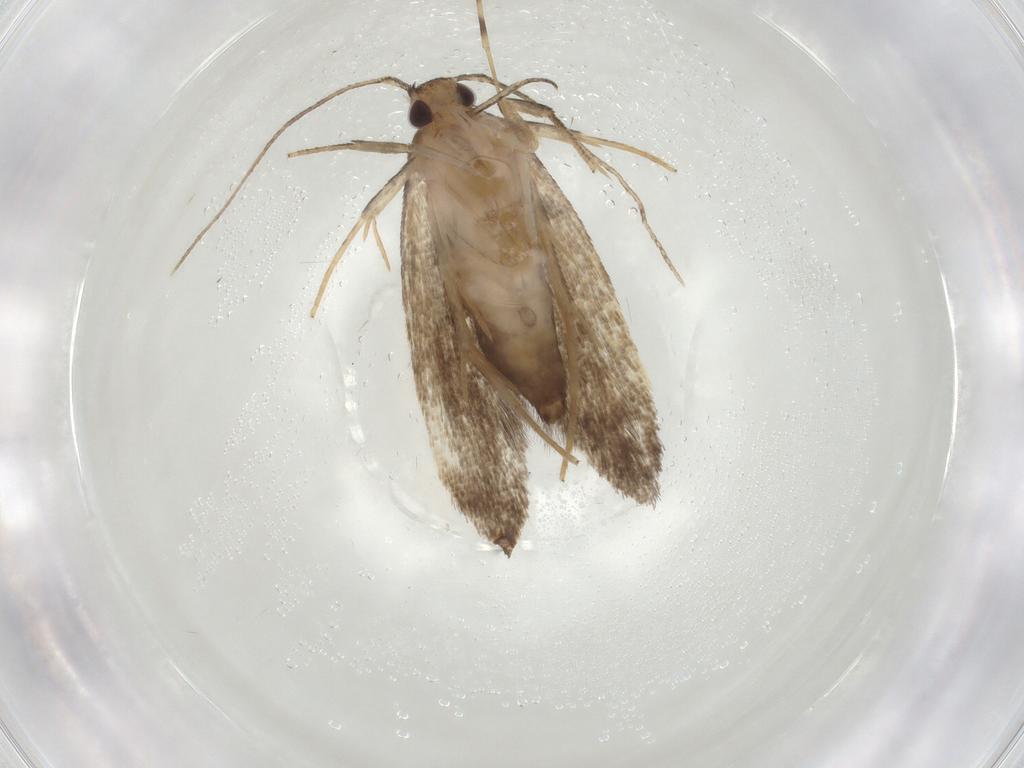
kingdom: Animalia
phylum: Arthropoda
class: Insecta
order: Lepidoptera
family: Cosmopterigidae
